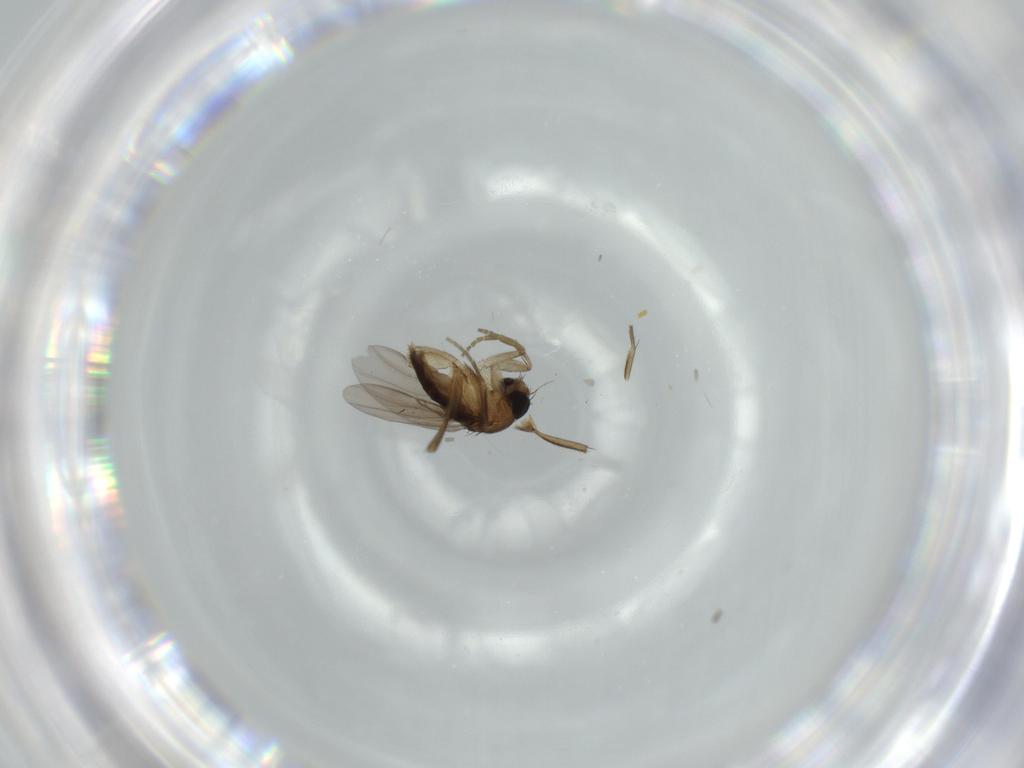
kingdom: Animalia
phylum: Arthropoda
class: Insecta
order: Diptera
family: Phoridae
